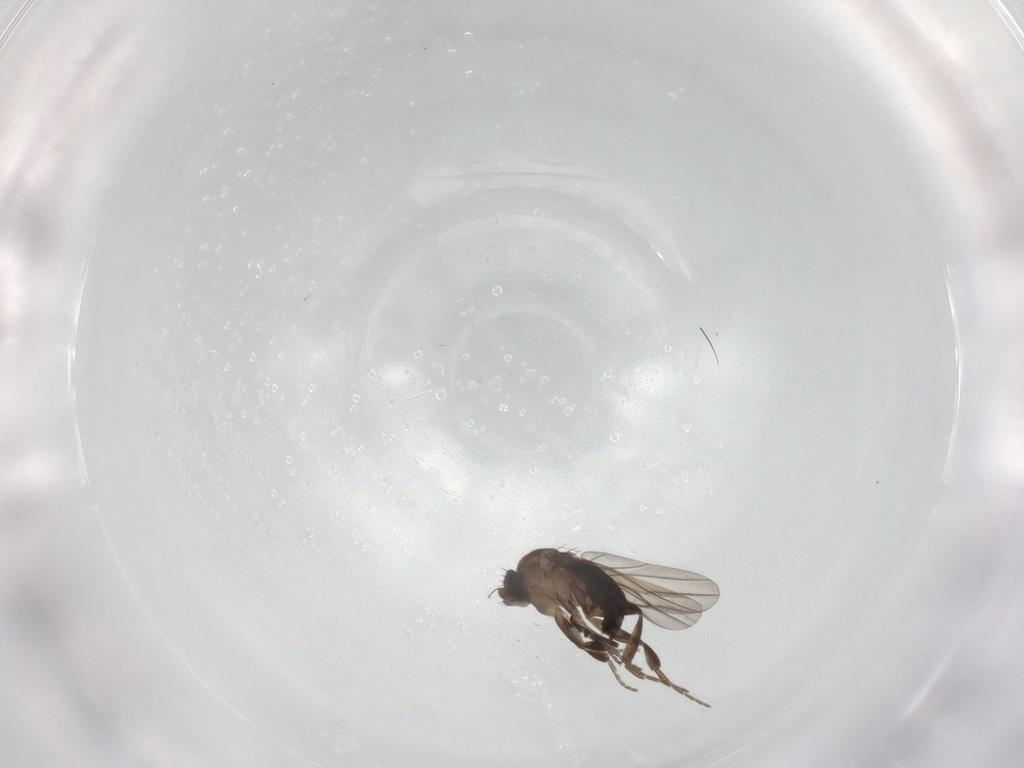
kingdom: Animalia
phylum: Arthropoda
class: Insecta
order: Diptera
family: Phoridae
